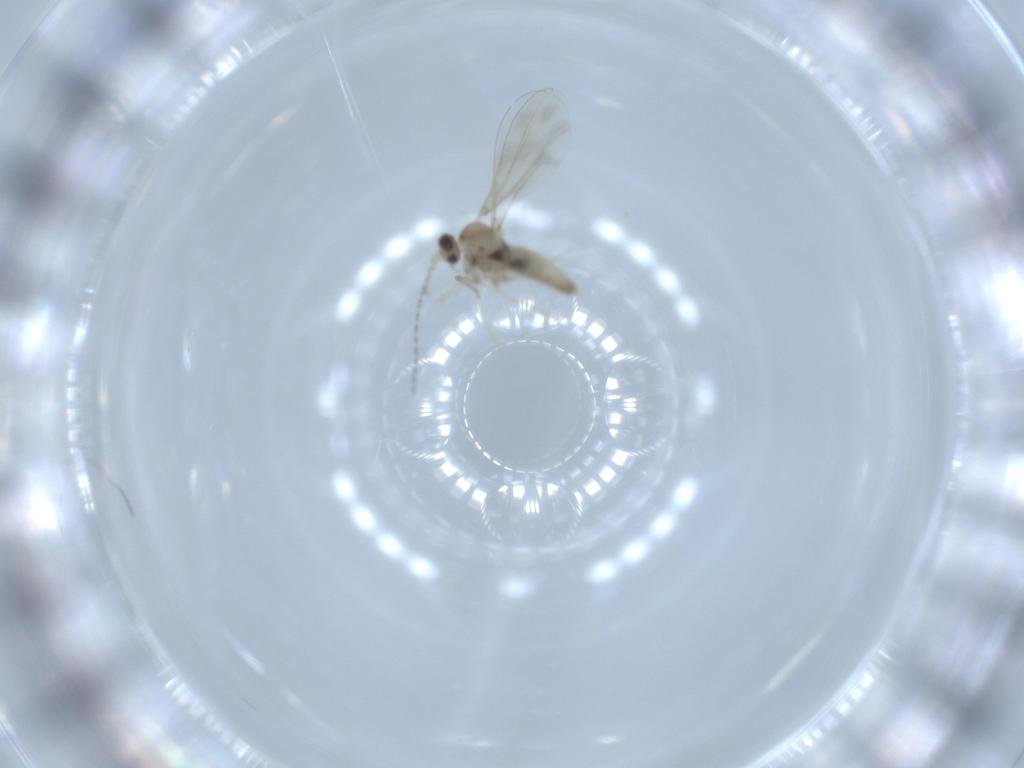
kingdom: Animalia
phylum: Arthropoda
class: Insecta
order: Diptera
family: Cecidomyiidae
